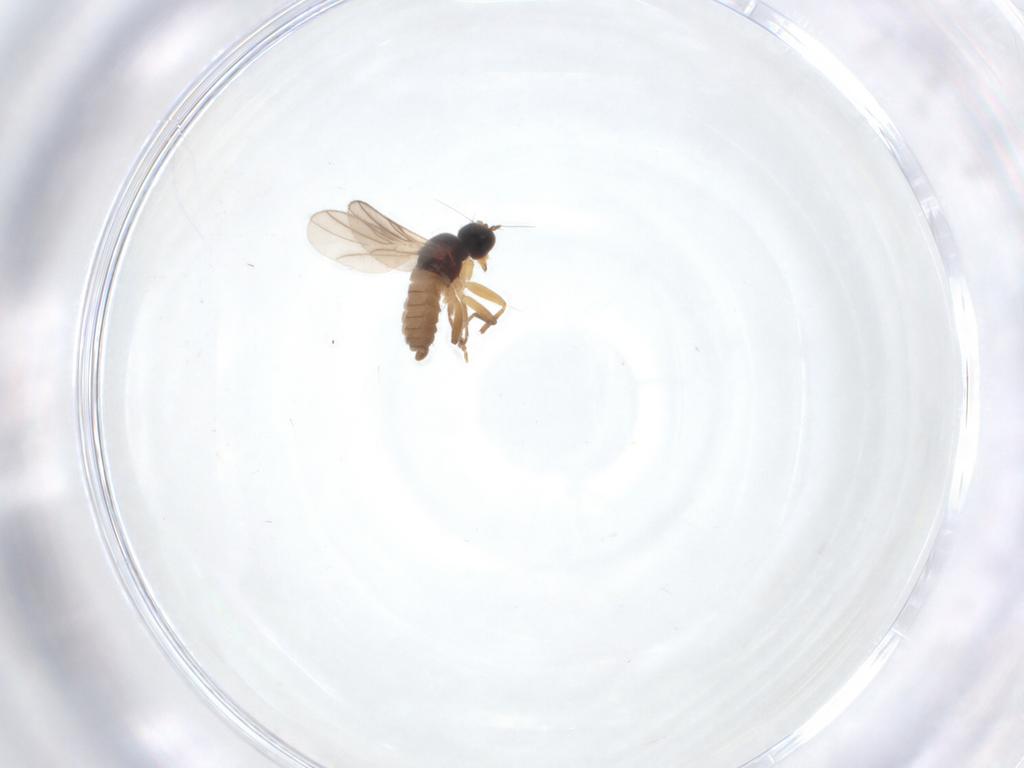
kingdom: Animalia
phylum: Arthropoda
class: Insecta
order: Diptera
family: Hybotidae
